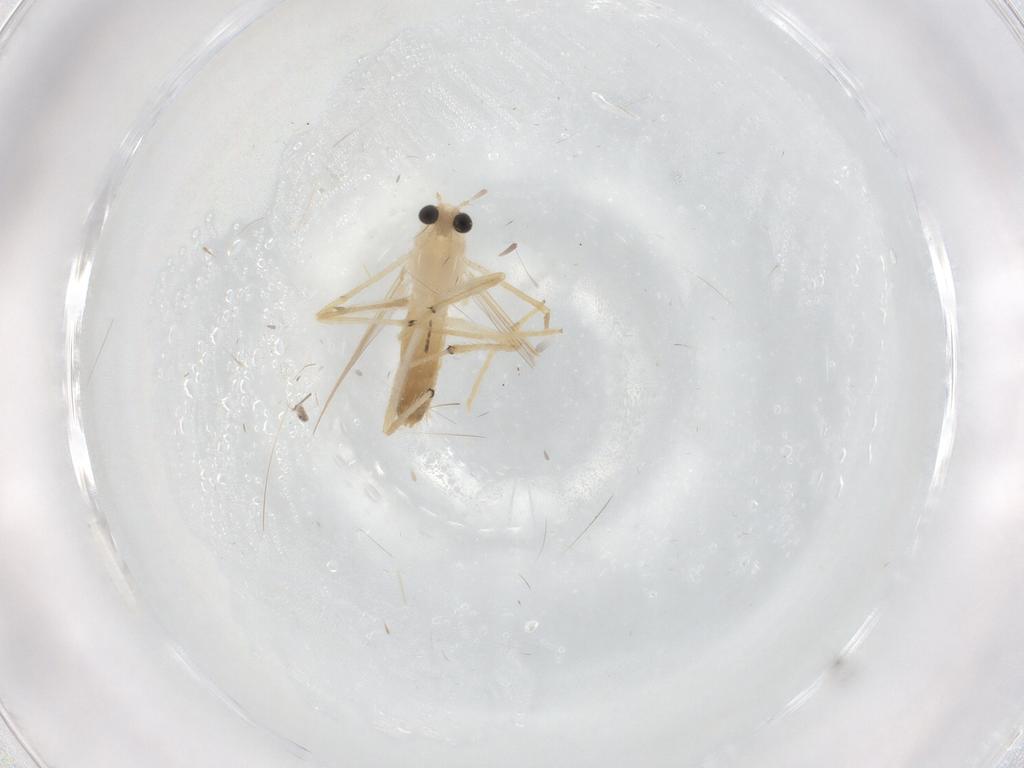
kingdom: Animalia
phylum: Arthropoda
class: Insecta
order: Diptera
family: Chironomidae
